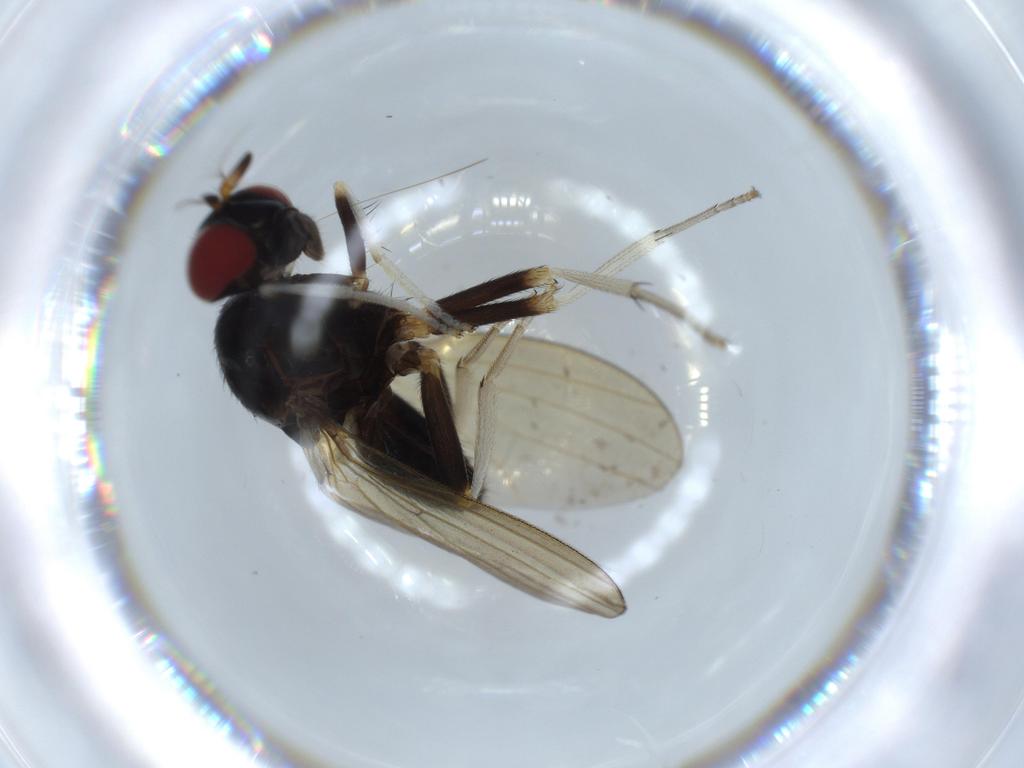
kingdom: Animalia
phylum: Arthropoda
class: Insecta
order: Diptera
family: Lauxaniidae
